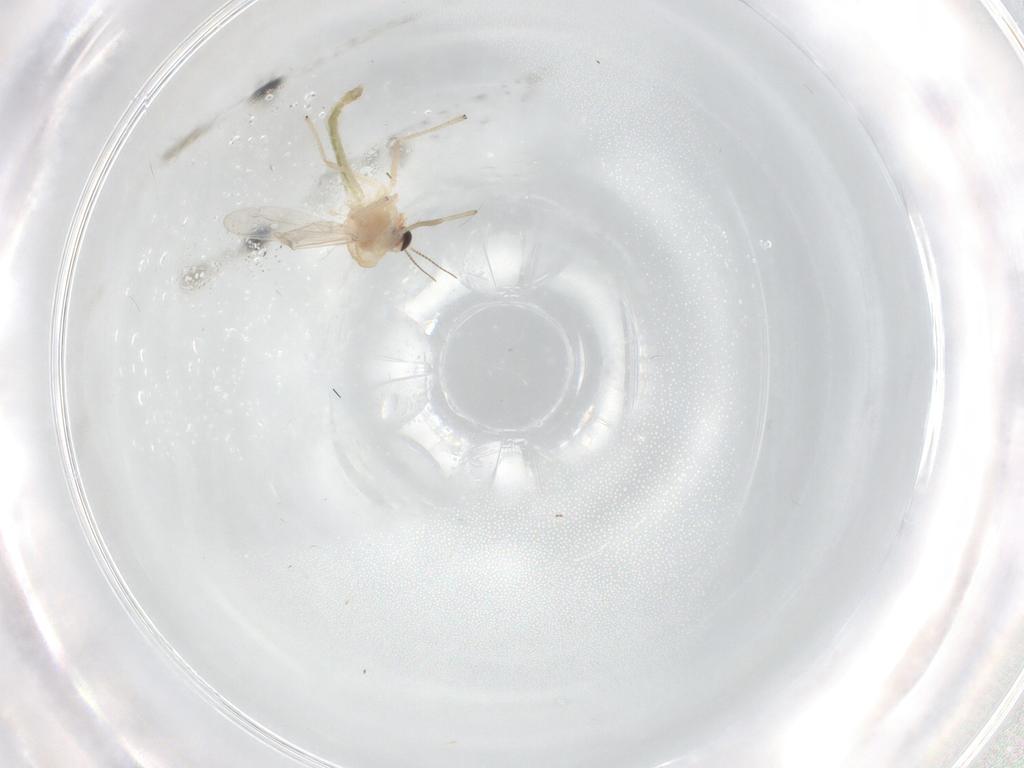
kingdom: Animalia
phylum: Arthropoda
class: Insecta
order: Diptera
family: Chironomidae
